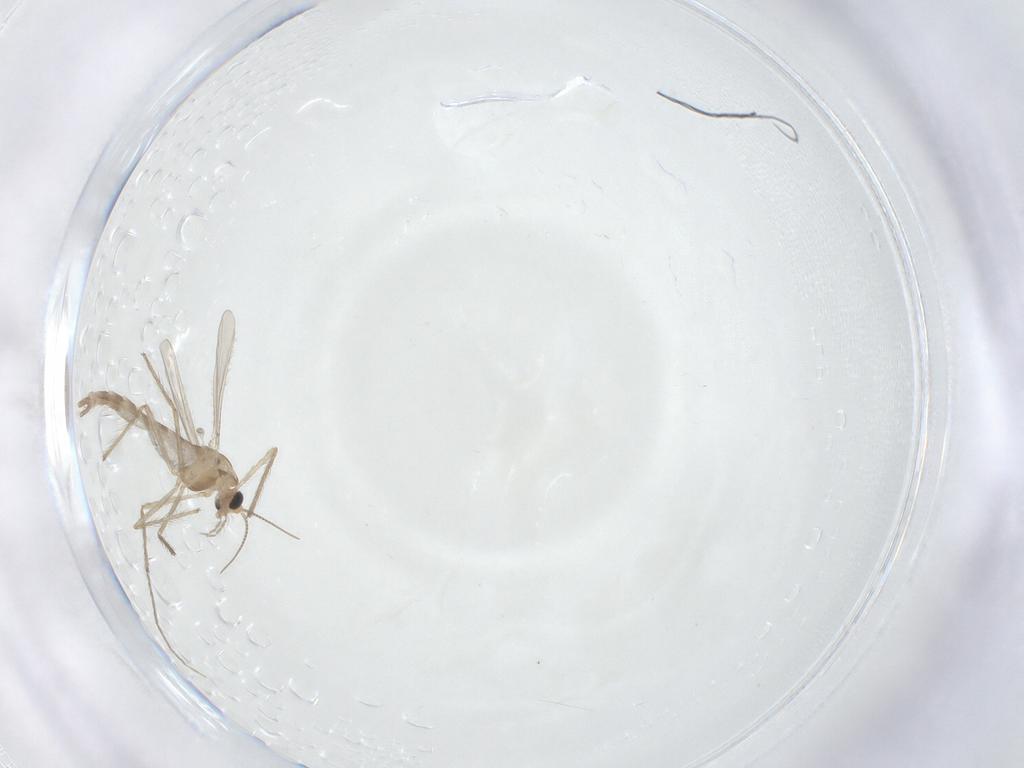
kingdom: Animalia
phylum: Arthropoda
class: Insecta
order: Diptera
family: Chironomidae
